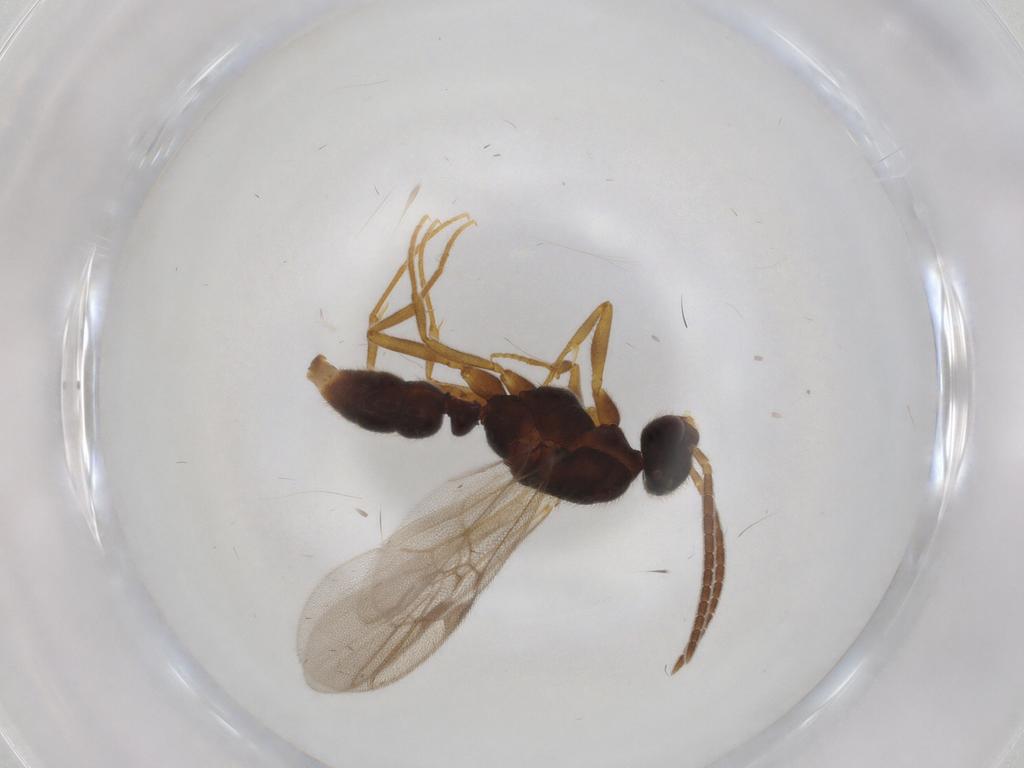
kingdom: Animalia
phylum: Arthropoda
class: Insecta
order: Hymenoptera
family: Formicidae
